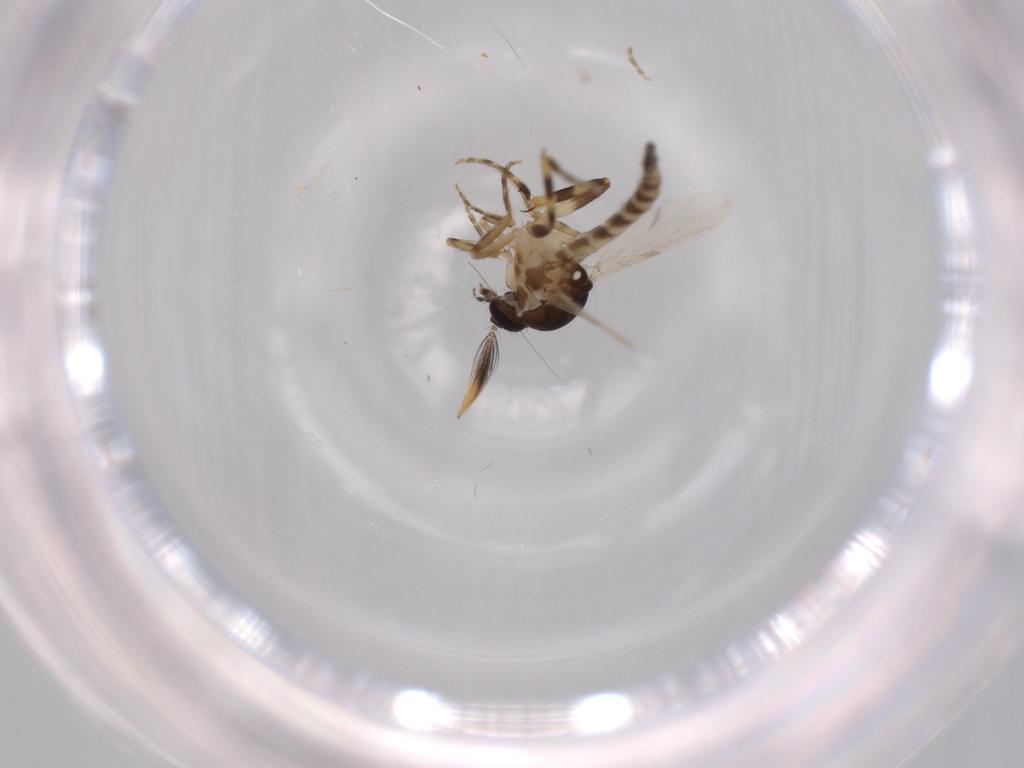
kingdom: Animalia
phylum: Arthropoda
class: Insecta
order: Diptera
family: Ceratopogonidae
